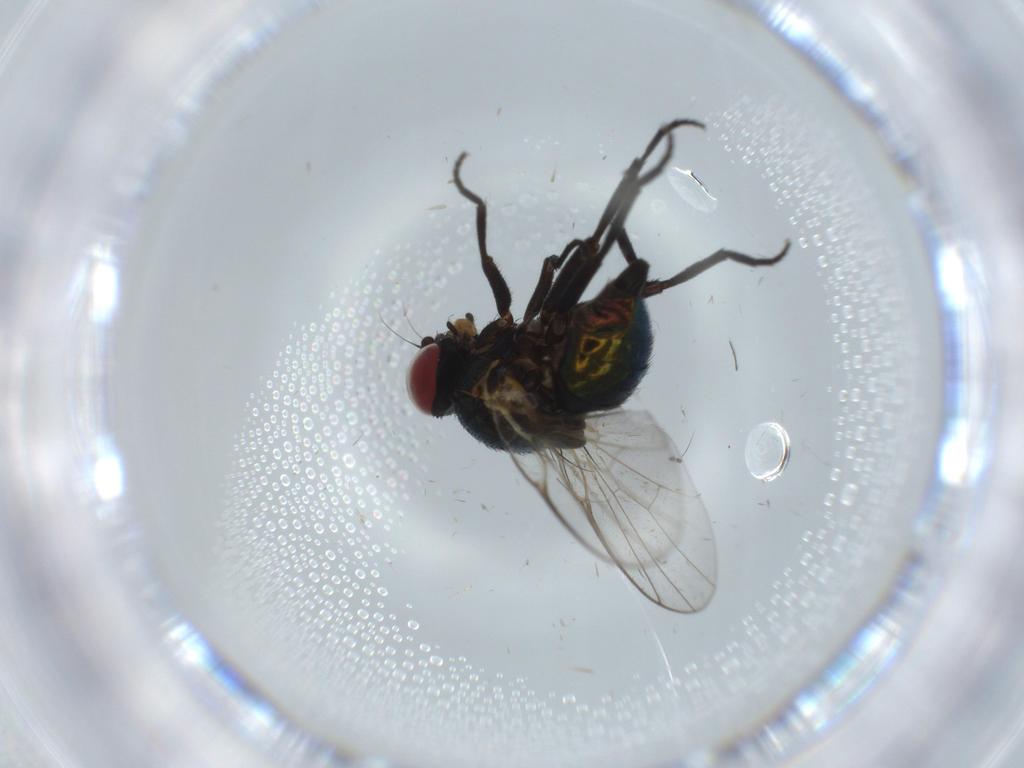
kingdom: Animalia
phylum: Arthropoda
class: Insecta
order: Diptera
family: Agromyzidae
